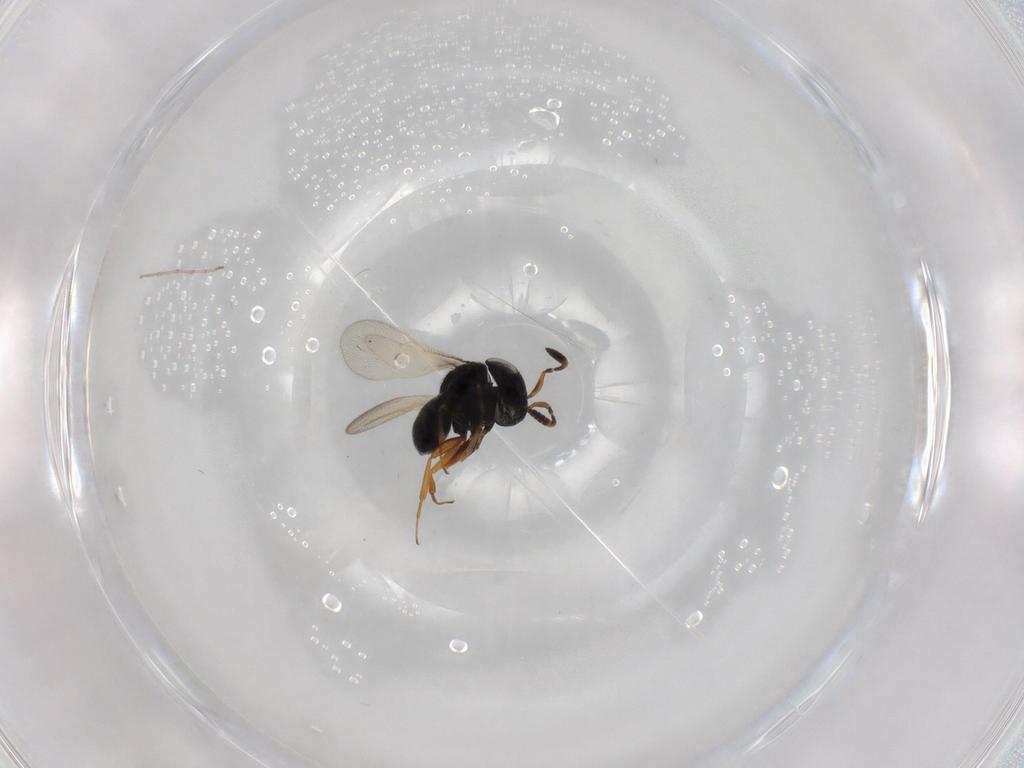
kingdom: Animalia
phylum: Arthropoda
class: Insecta
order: Hymenoptera
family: Scelionidae
